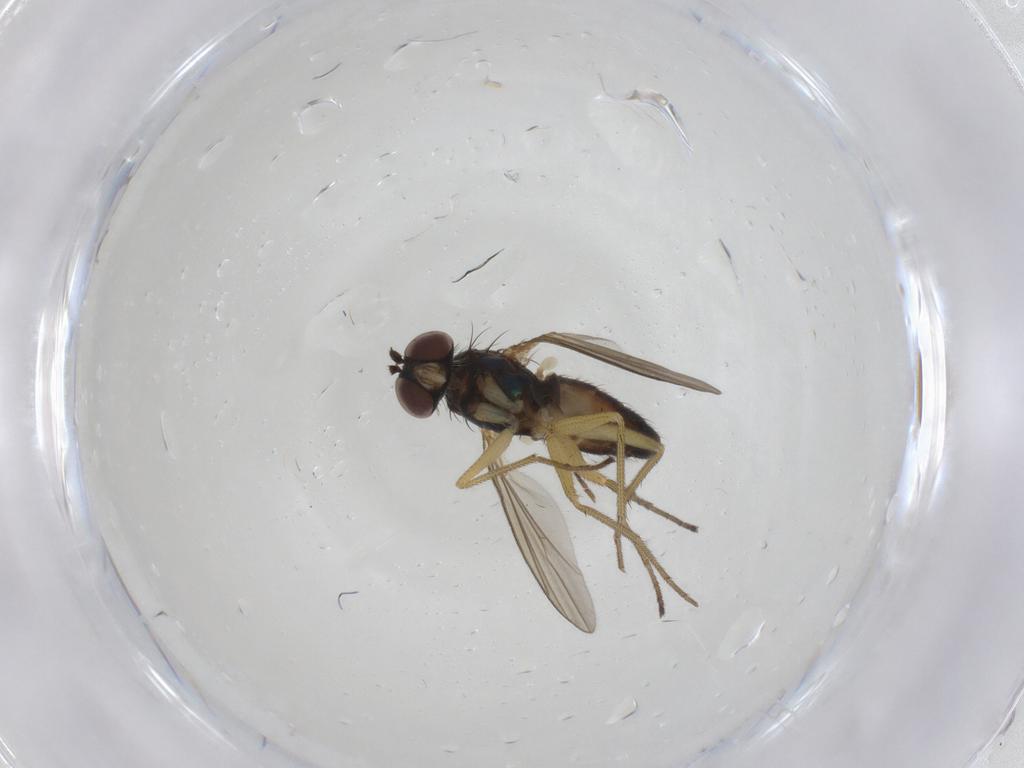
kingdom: Animalia
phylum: Arthropoda
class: Insecta
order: Diptera
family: Dolichopodidae
